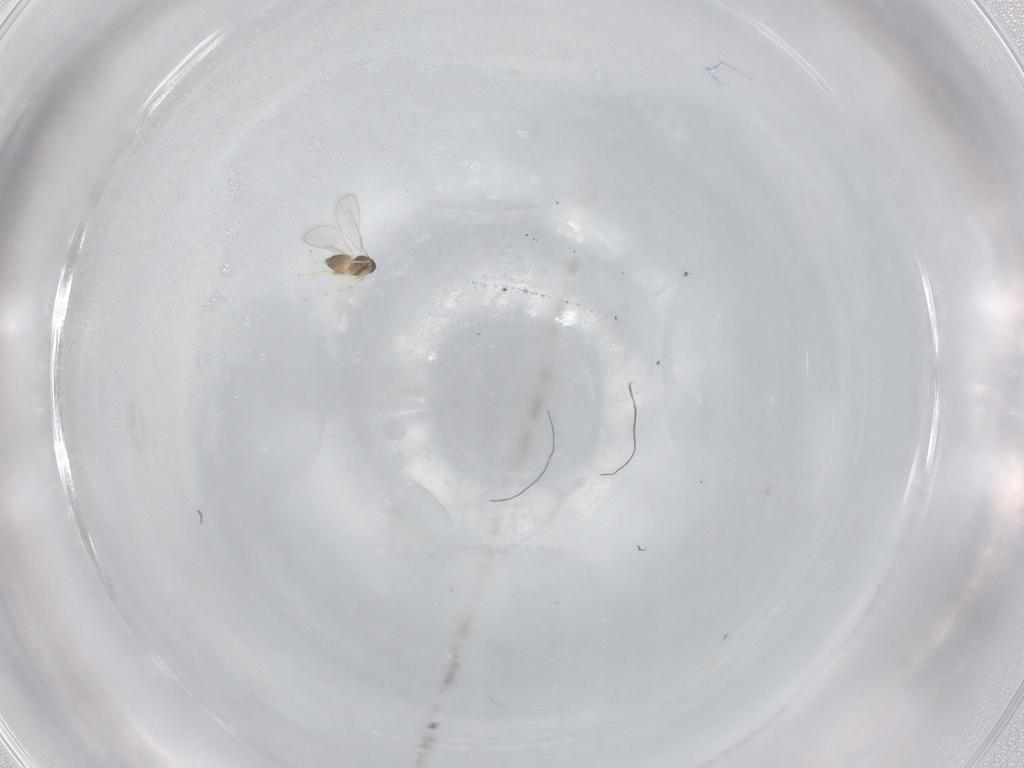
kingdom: Animalia
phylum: Arthropoda
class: Insecta
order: Hymenoptera
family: Eulophidae
